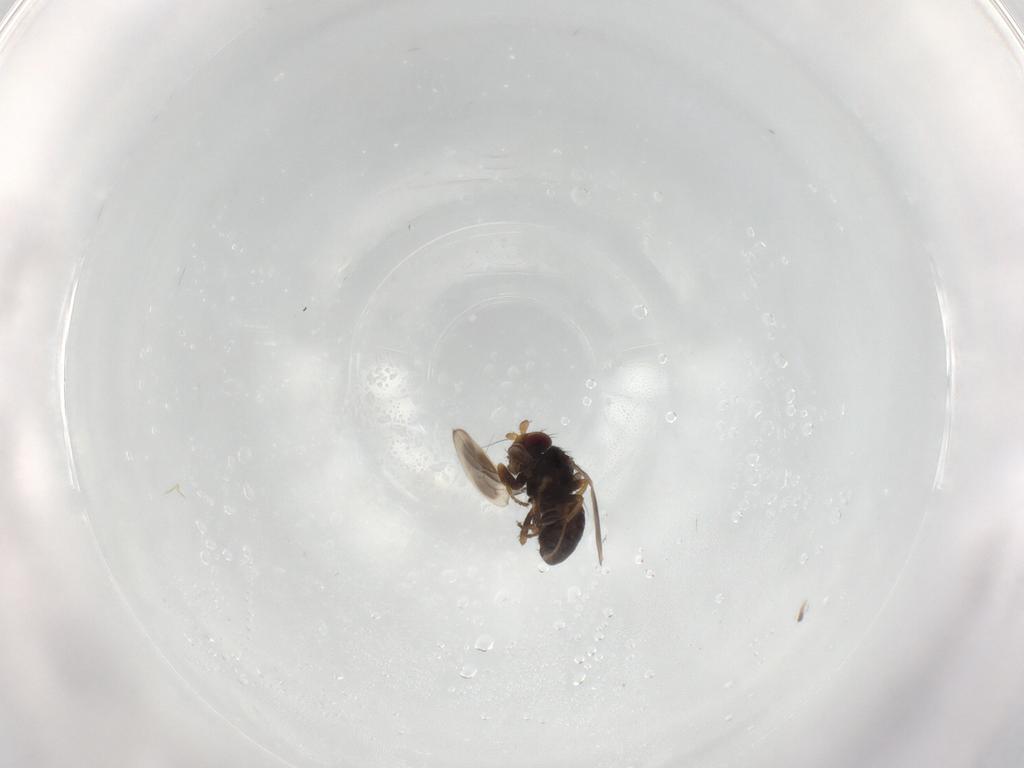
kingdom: Animalia
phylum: Arthropoda
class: Insecta
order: Diptera
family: Sphaeroceridae
